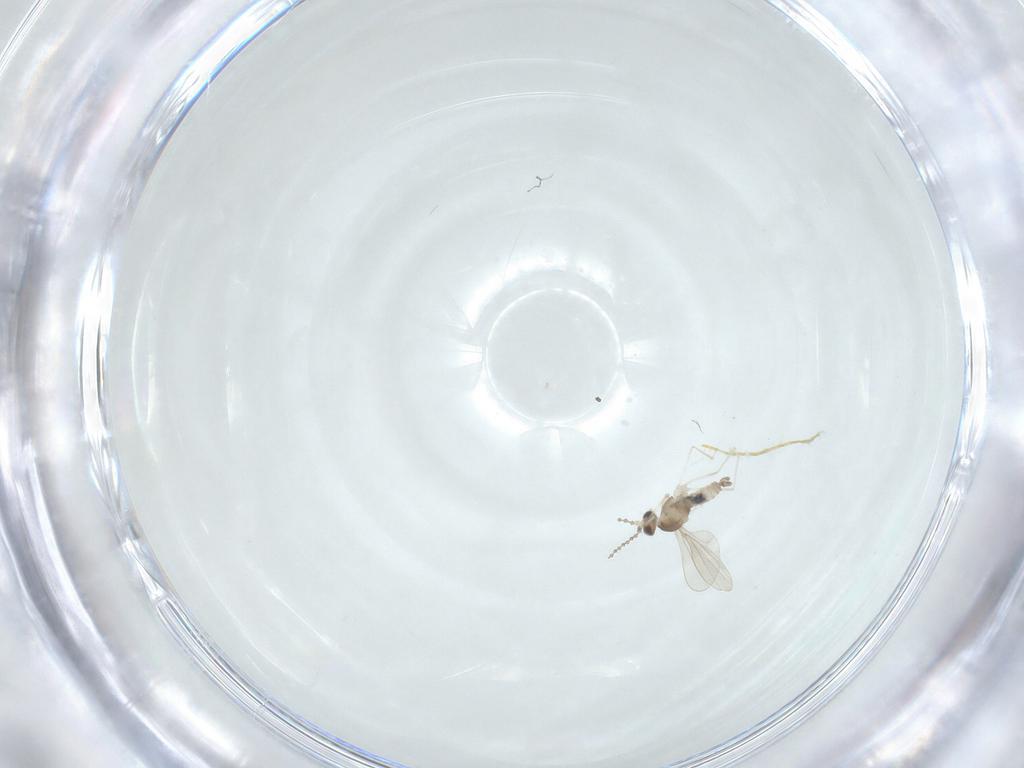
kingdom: Animalia
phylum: Arthropoda
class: Insecta
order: Diptera
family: Cecidomyiidae
